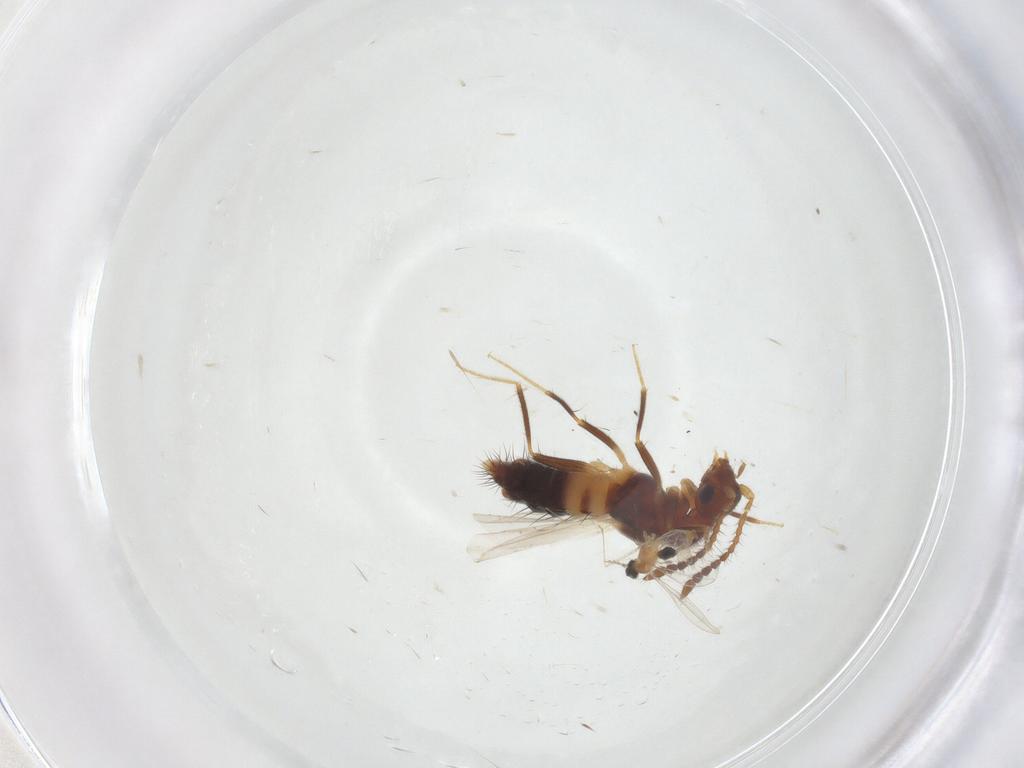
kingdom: Animalia
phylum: Arthropoda
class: Insecta
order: Coleoptera
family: Staphylinidae
